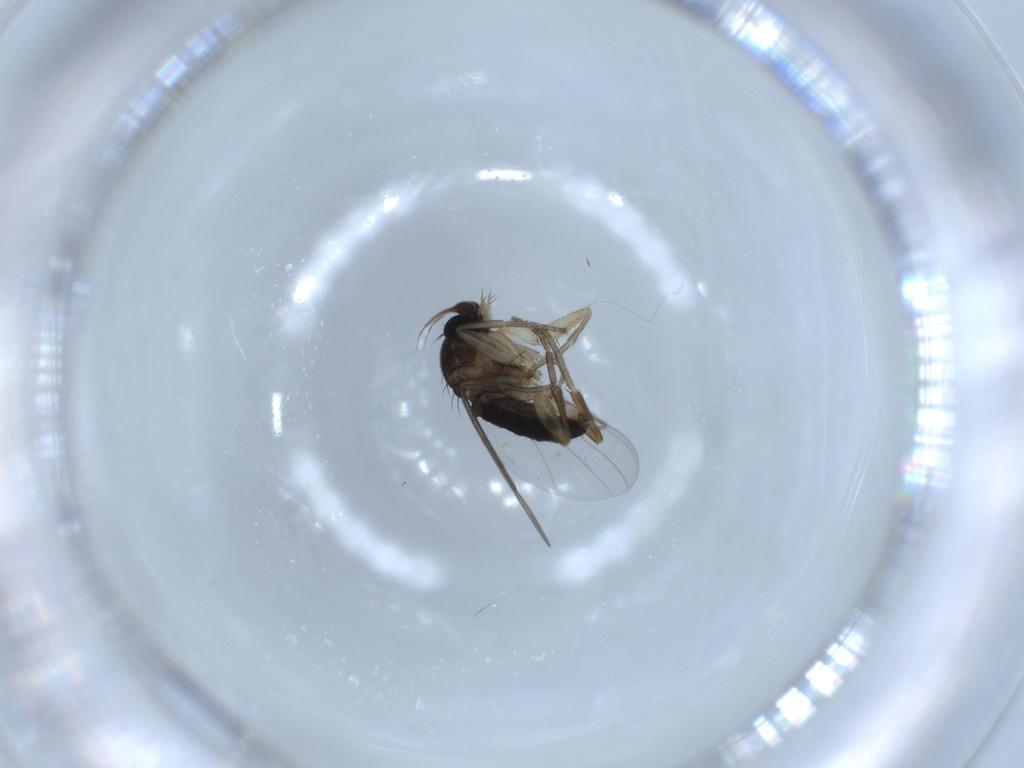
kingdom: Animalia
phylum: Arthropoda
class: Insecta
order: Diptera
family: Phoridae
